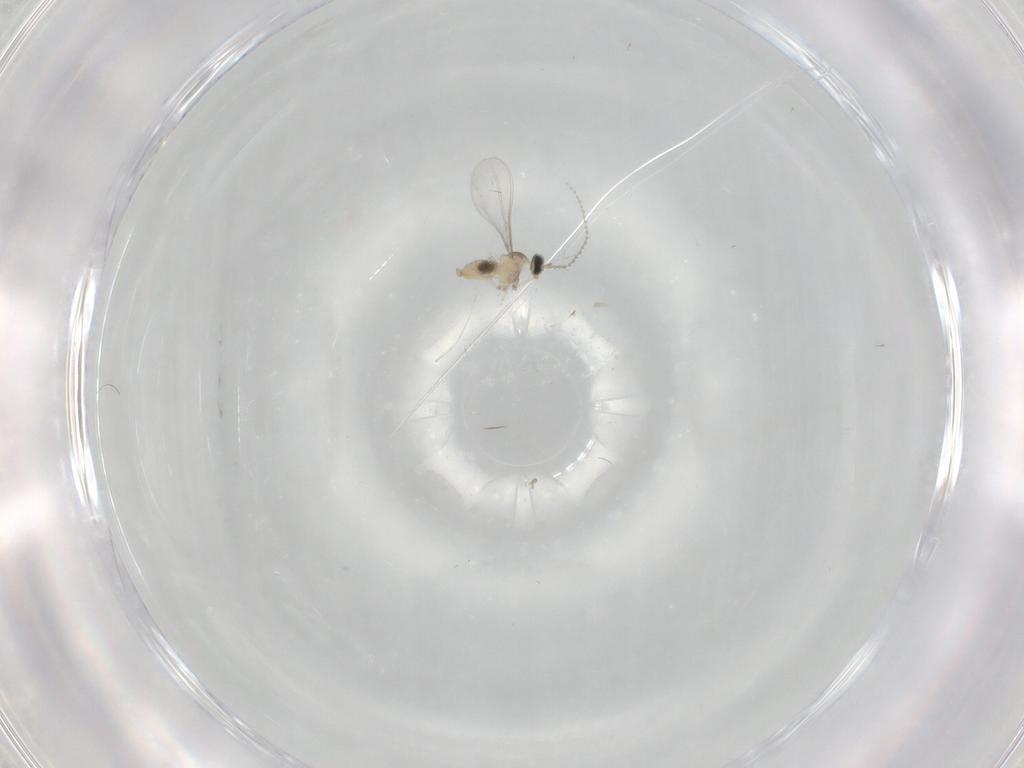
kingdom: Animalia
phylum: Arthropoda
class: Insecta
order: Diptera
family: Cecidomyiidae
